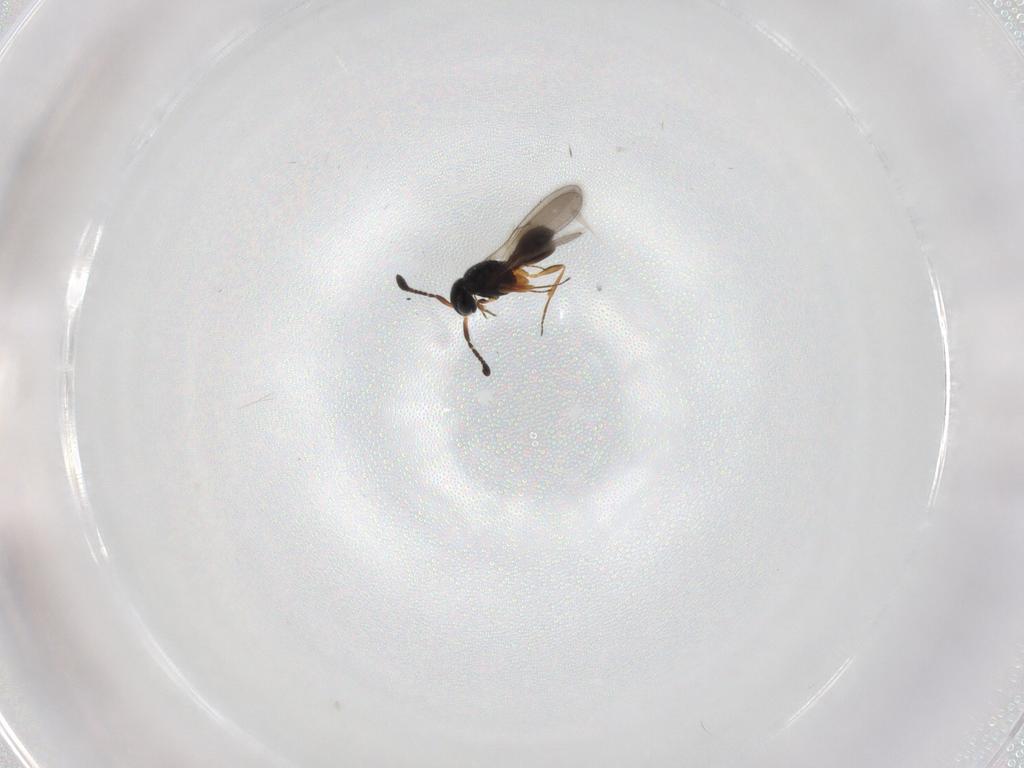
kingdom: Animalia
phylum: Arthropoda
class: Insecta
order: Hymenoptera
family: Scelionidae
